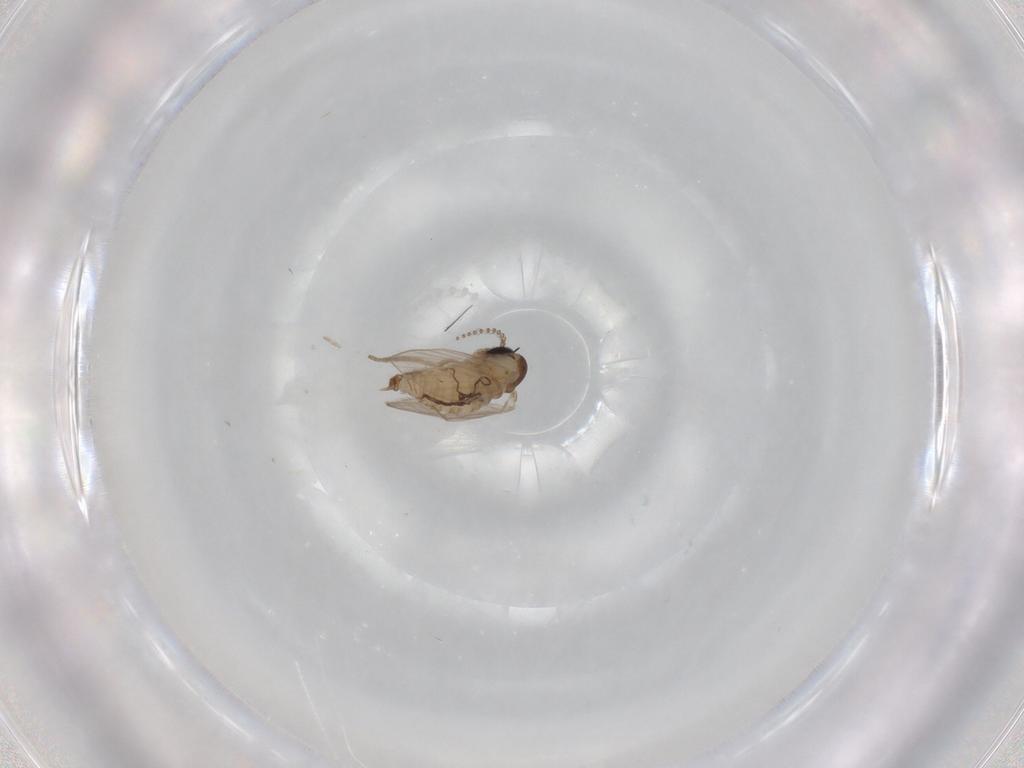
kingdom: Animalia
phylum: Arthropoda
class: Insecta
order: Diptera
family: Psychodidae
